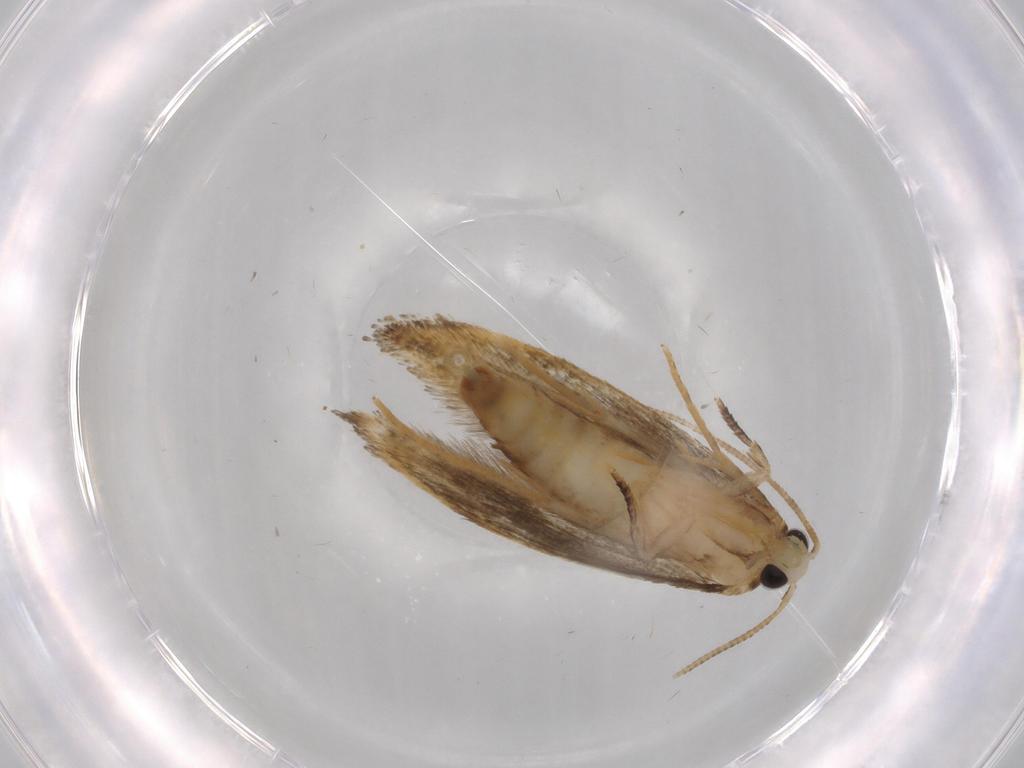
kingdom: Animalia
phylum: Arthropoda
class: Insecta
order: Lepidoptera
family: Tineidae
